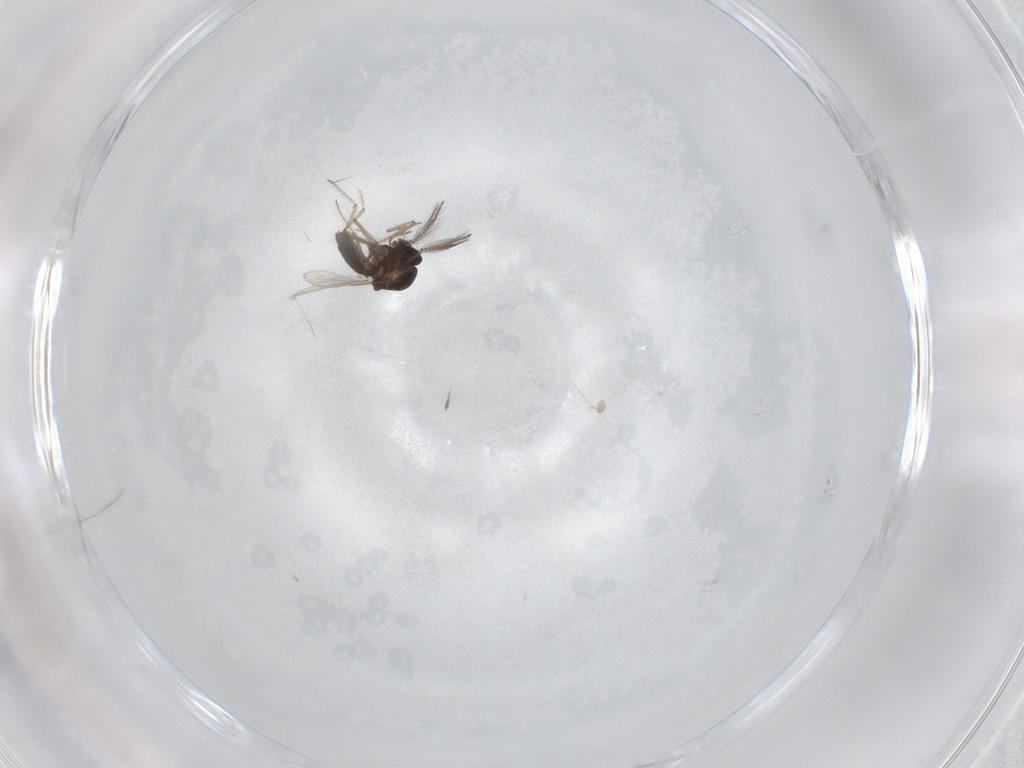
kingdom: Animalia
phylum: Arthropoda
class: Insecta
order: Diptera
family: Ceratopogonidae
